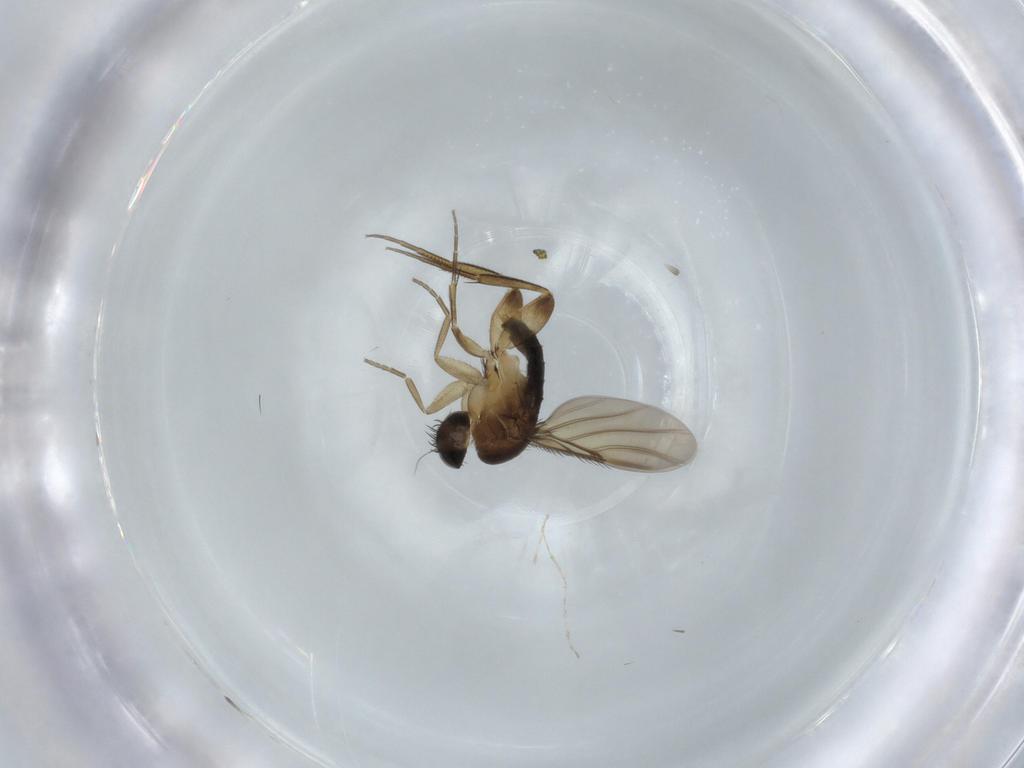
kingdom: Animalia
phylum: Arthropoda
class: Insecta
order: Diptera
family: Phoridae
